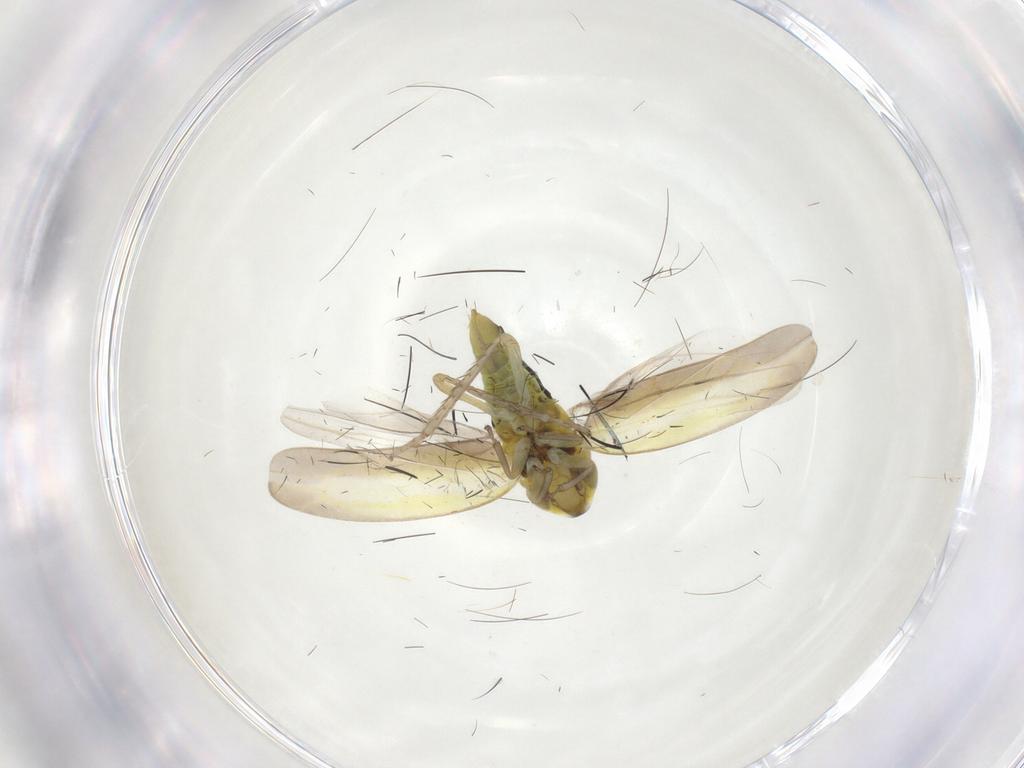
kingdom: Animalia
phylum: Arthropoda
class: Insecta
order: Hemiptera
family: Cicadellidae
